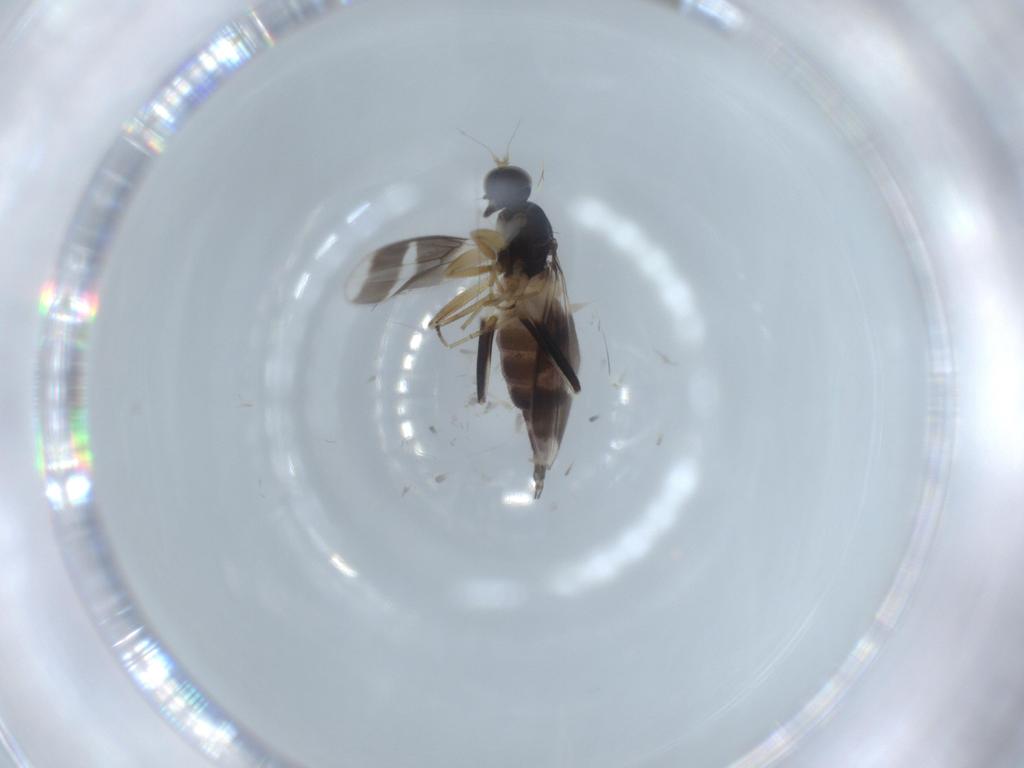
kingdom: Animalia
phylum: Arthropoda
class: Insecta
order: Diptera
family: Hybotidae
